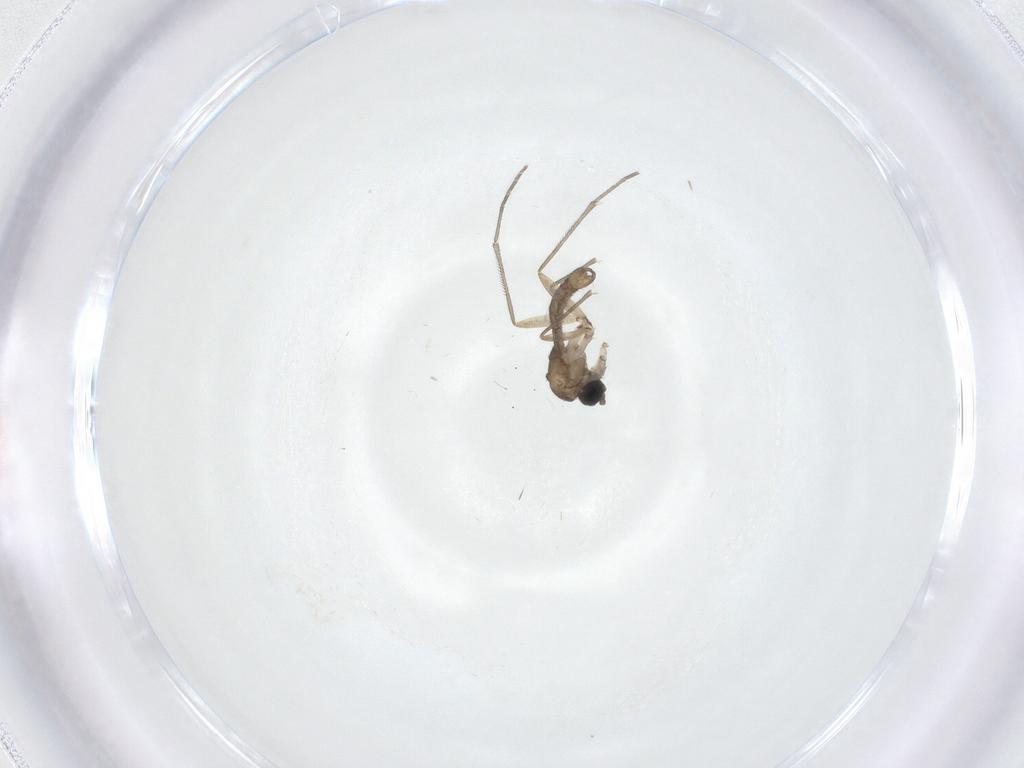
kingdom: Animalia
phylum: Arthropoda
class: Insecta
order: Diptera
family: Sciaridae
